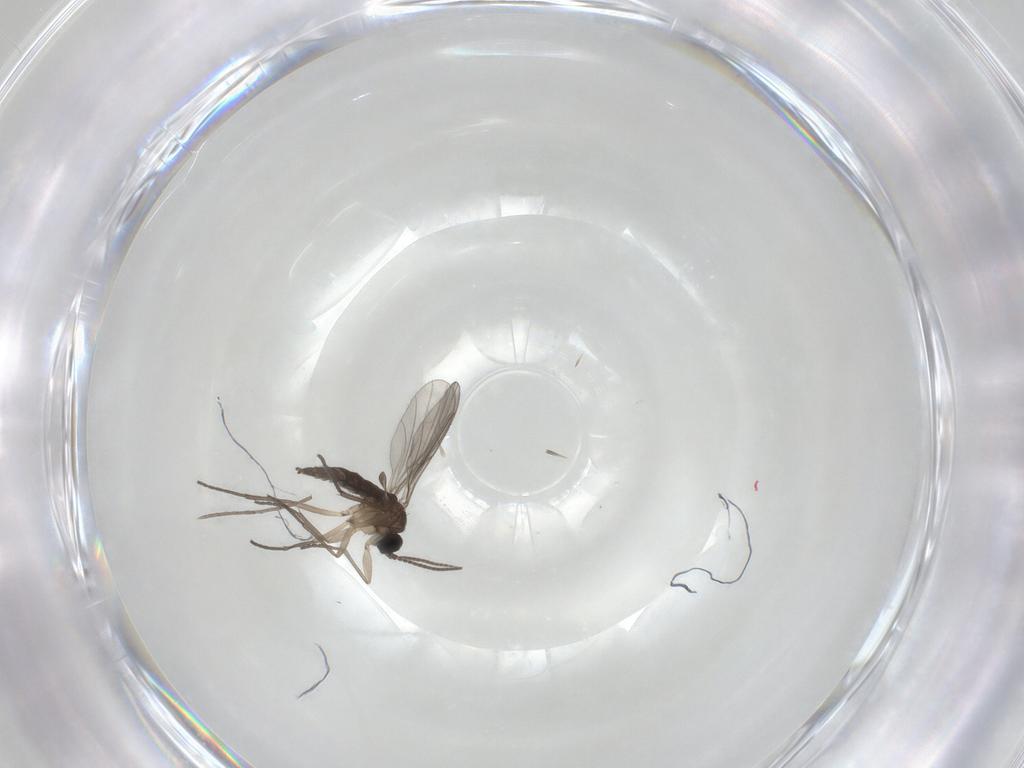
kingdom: Animalia
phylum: Arthropoda
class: Insecta
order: Diptera
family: Sciaridae
